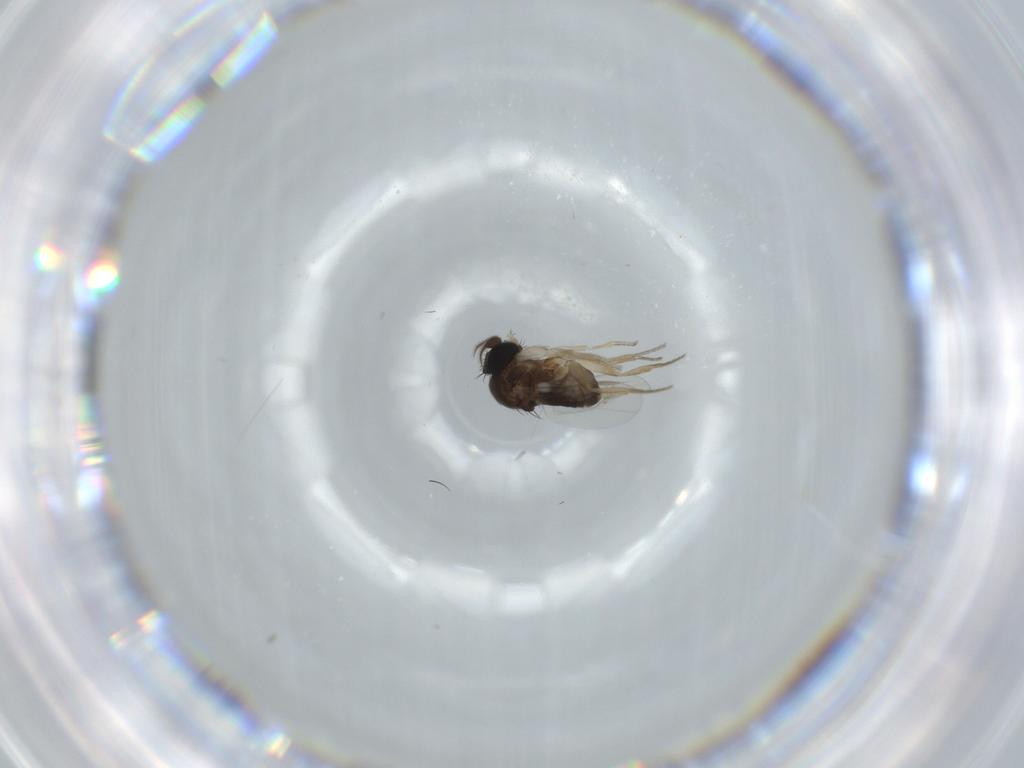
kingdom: Animalia
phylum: Arthropoda
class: Insecta
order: Diptera
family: Phoridae
